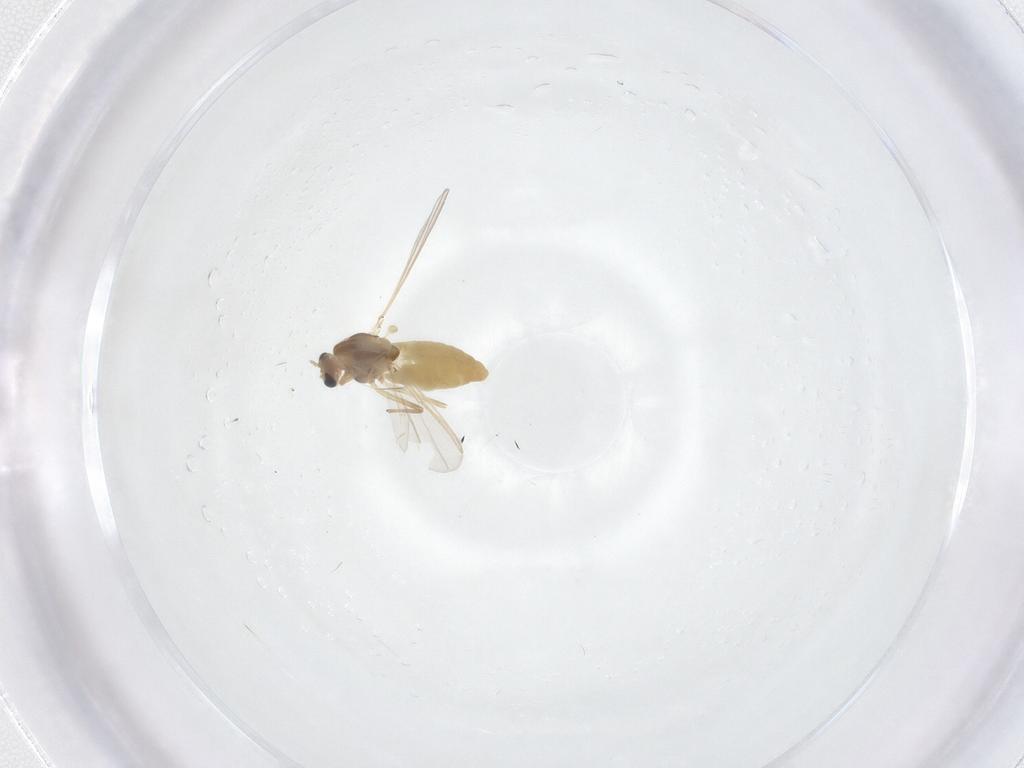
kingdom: Animalia
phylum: Arthropoda
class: Insecta
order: Diptera
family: Chironomidae
